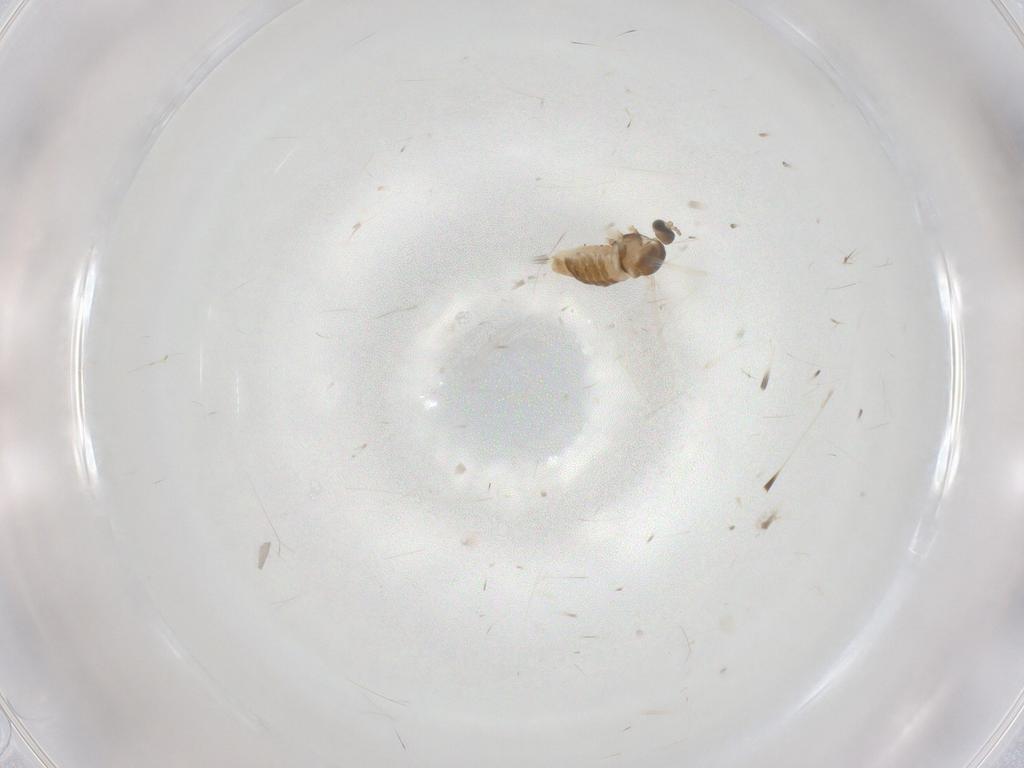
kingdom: Animalia
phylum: Arthropoda
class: Insecta
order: Diptera
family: Cecidomyiidae
